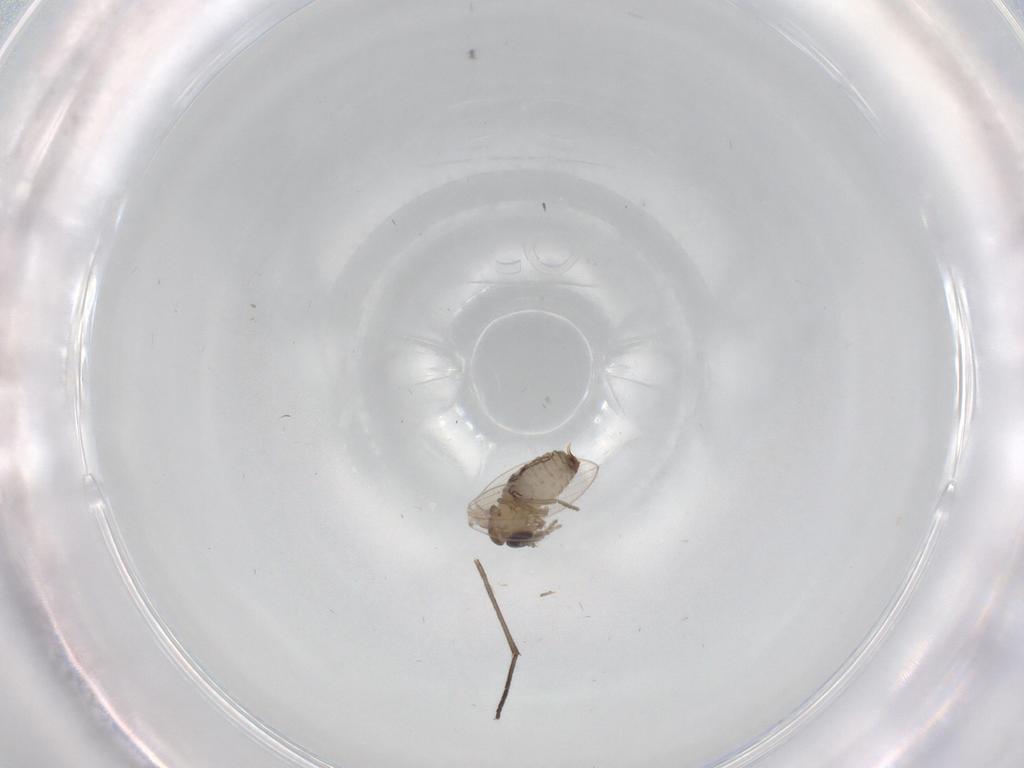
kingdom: Animalia
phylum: Arthropoda
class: Insecta
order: Diptera
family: Psychodidae
